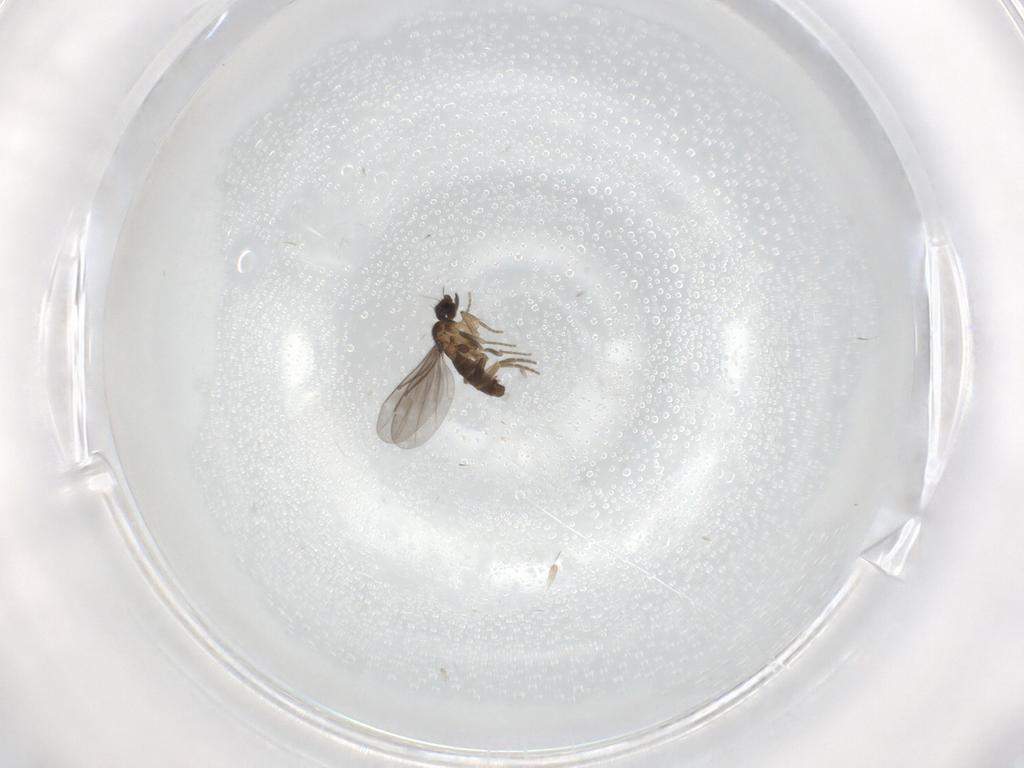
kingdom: Animalia
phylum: Arthropoda
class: Insecta
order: Diptera
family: Phoridae
